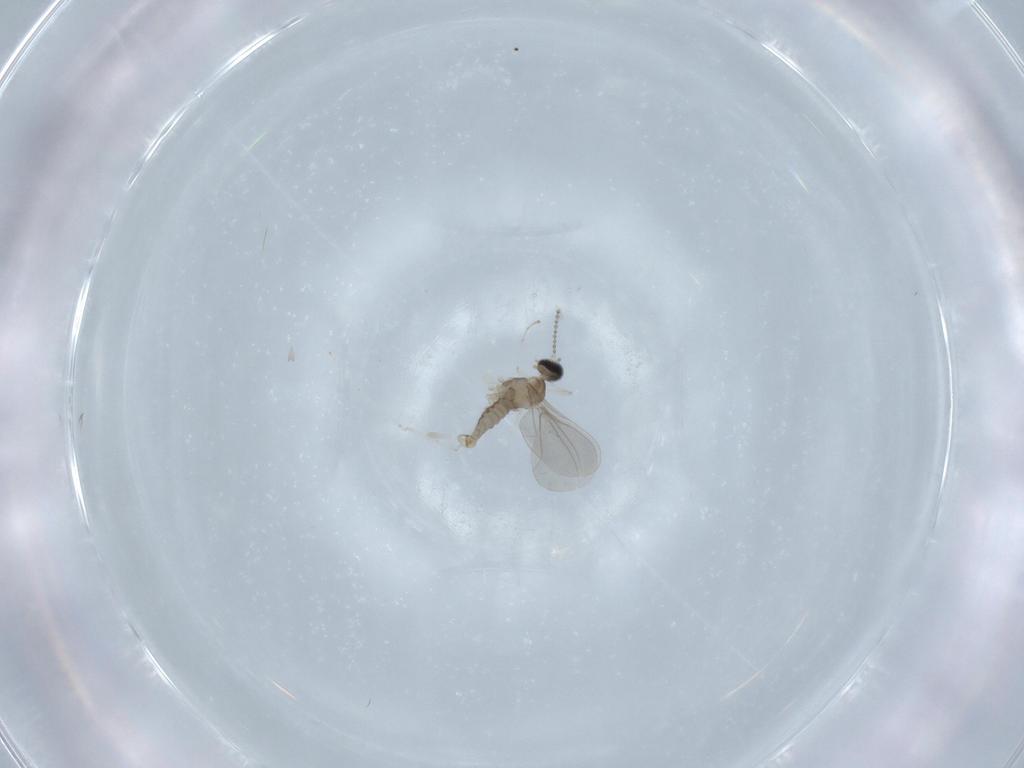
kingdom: Animalia
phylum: Arthropoda
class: Insecta
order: Diptera
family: Cecidomyiidae
